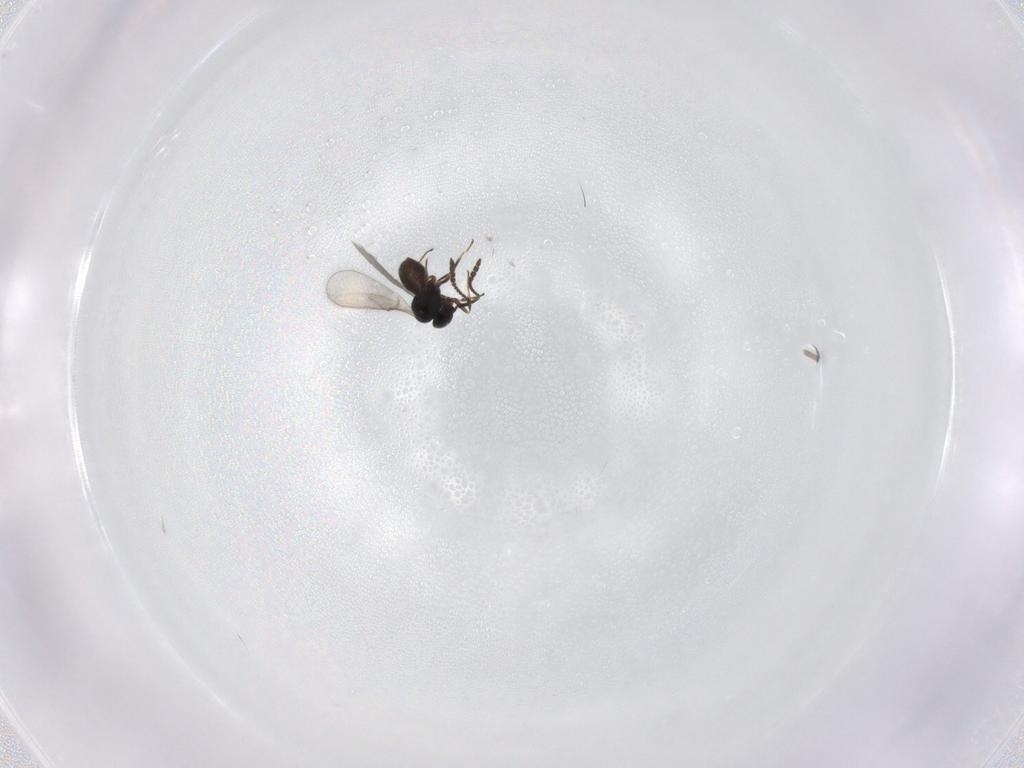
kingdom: Animalia
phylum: Arthropoda
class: Insecta
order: Hymenoptera
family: Scelionidae
